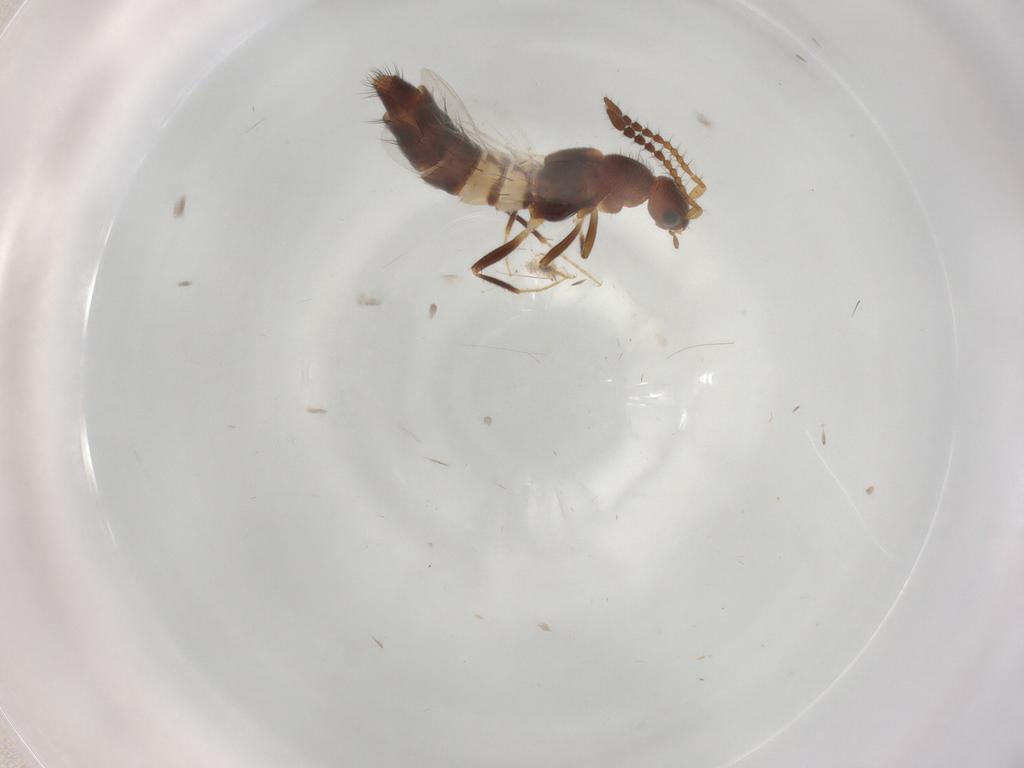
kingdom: Animalia
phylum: Arthropoda
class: Insecta
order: Coleoptera
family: Staphylinidae
